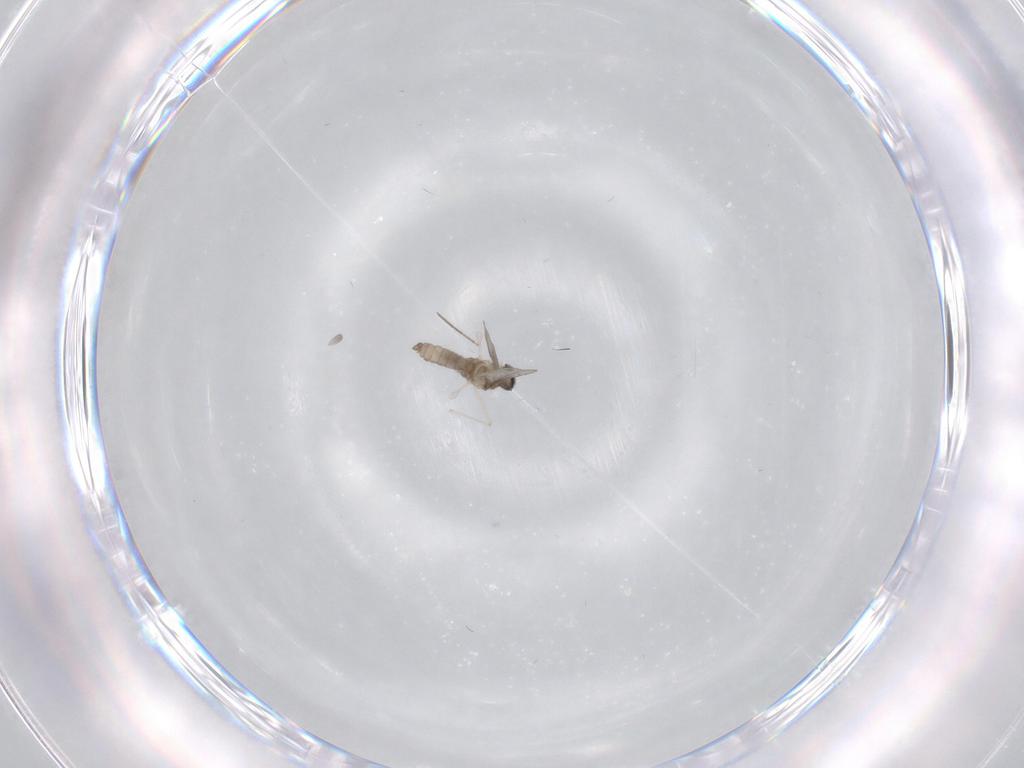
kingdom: Animalia
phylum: Arthropoda
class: Insecta
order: Diptera
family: Cecidomyiidae
